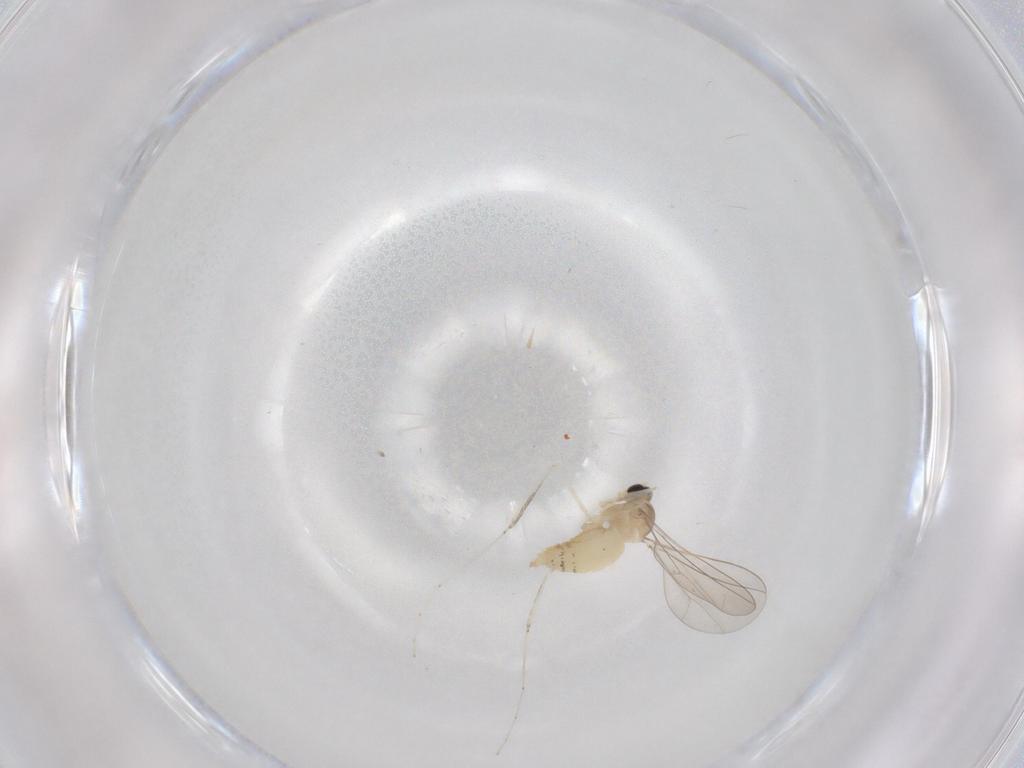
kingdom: Animalia
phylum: Arthropoda
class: Insecta
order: Diptera
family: Cecidomyiidae
